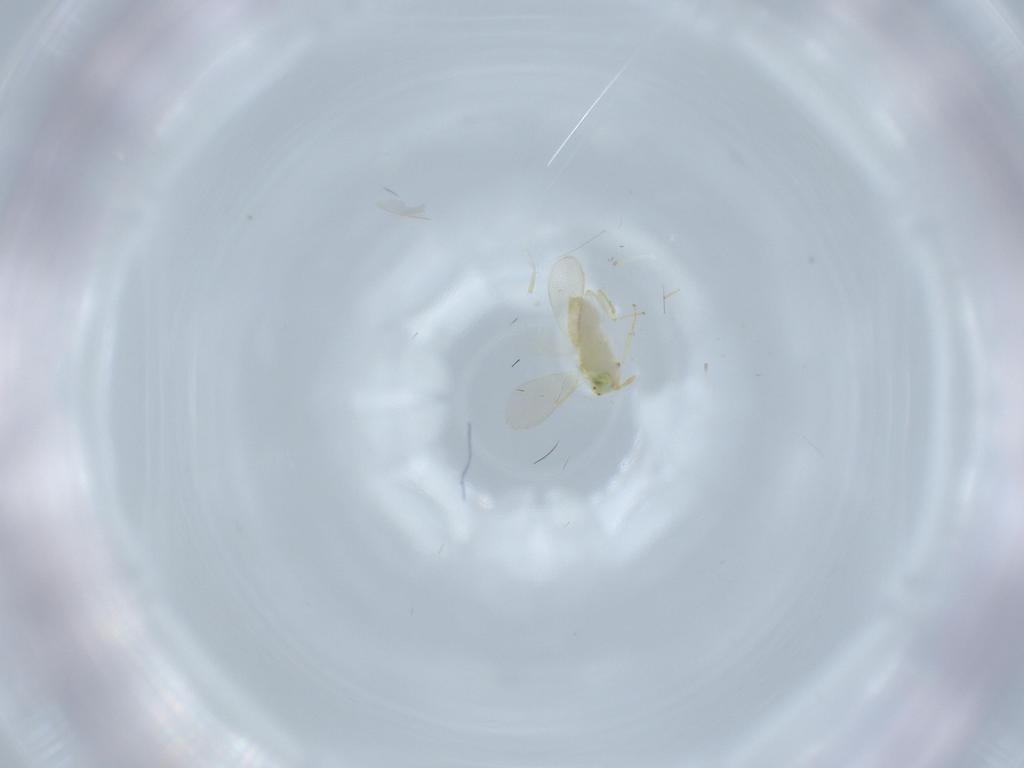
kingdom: Animalia
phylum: Arthropoda
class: Insecta
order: Hymenoptera
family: Aphelinidae
